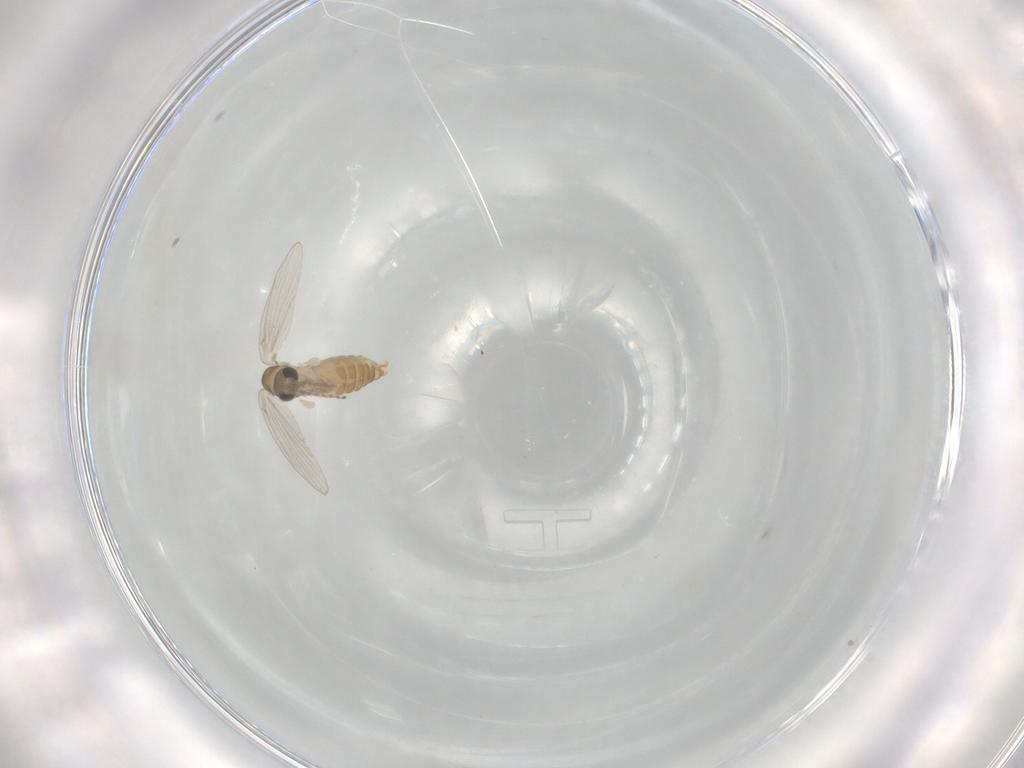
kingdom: Animalia
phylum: Arthropoda
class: Insecta
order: Diptera
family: Psychodidae
